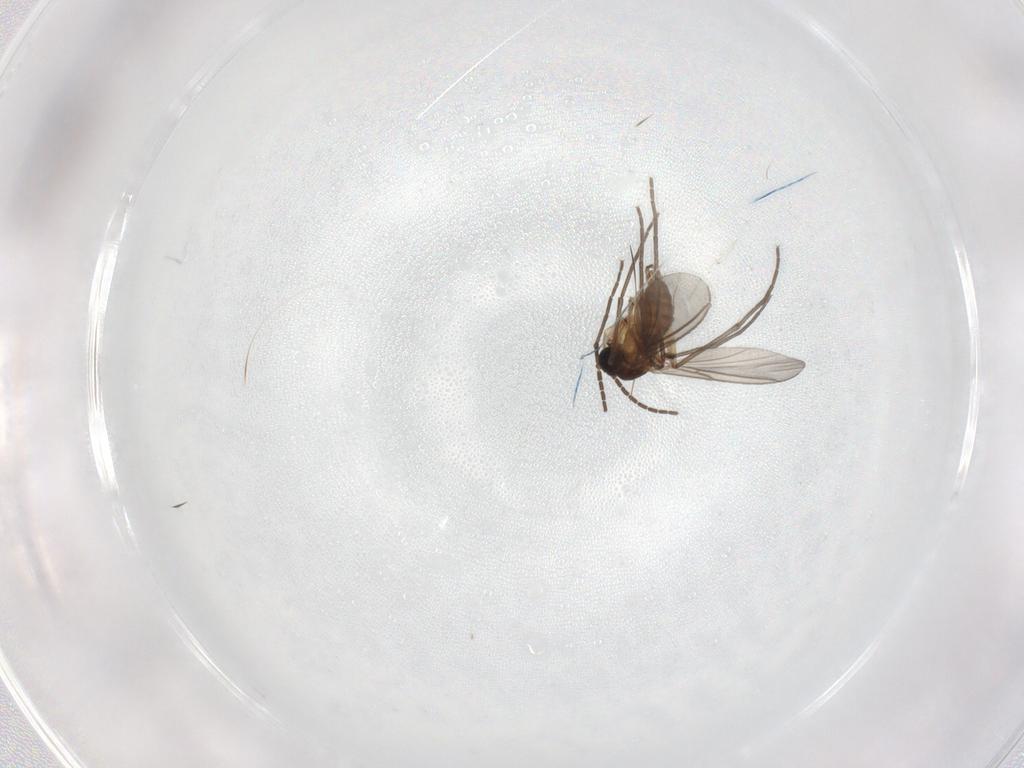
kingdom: Animalia
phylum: Arthropoda
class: Insecta
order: Diptera
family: Sciaridae
